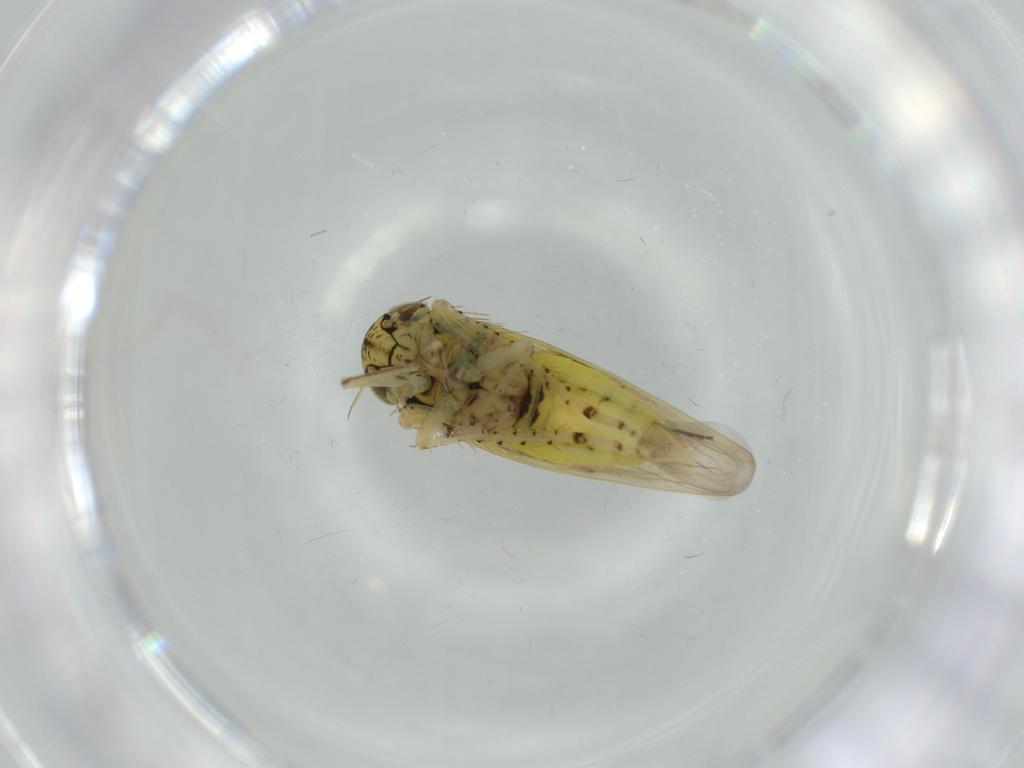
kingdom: Animalia
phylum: Arthropoda
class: Insecta
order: Hemiptera
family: Cicadellidae
